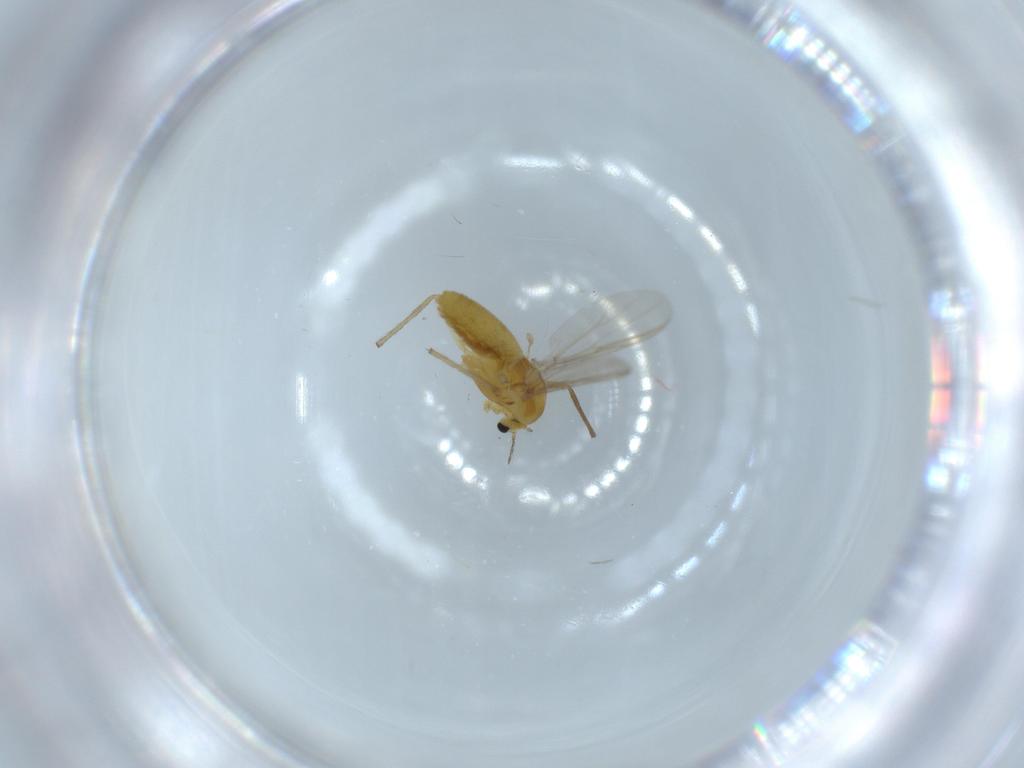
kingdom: Animalia
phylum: Arthropoda
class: Insecta
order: Diptera
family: Chironomidae
